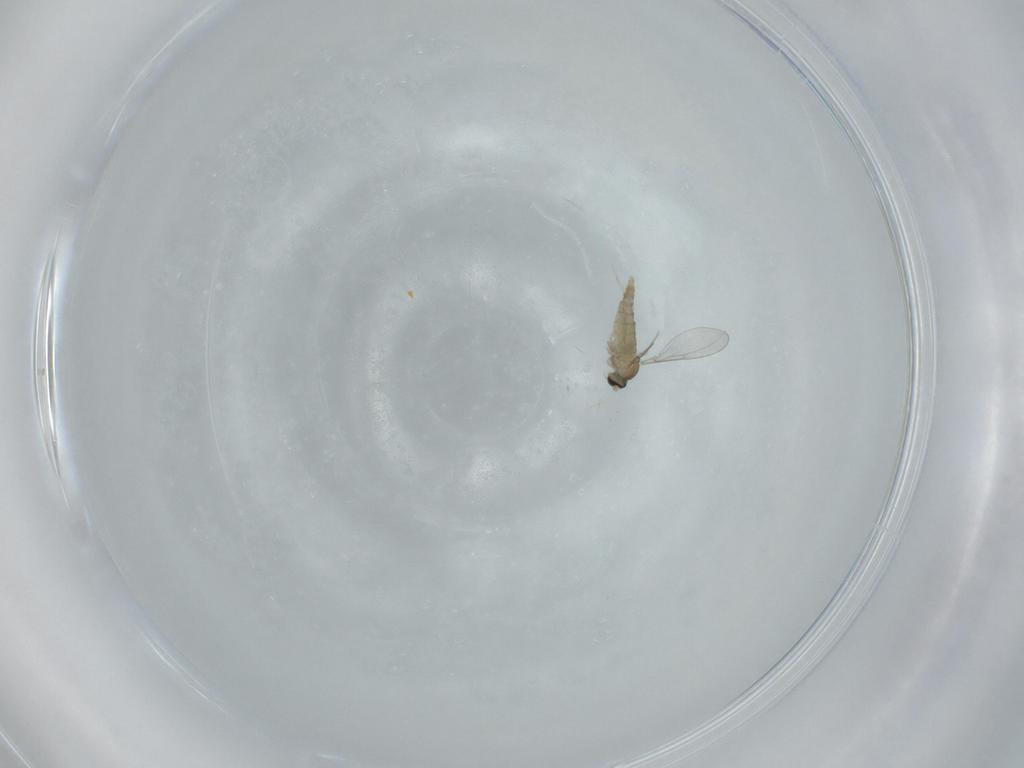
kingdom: Animalia
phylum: Arthropoda
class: Insecta
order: Diptera
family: Cecidomyiidae
